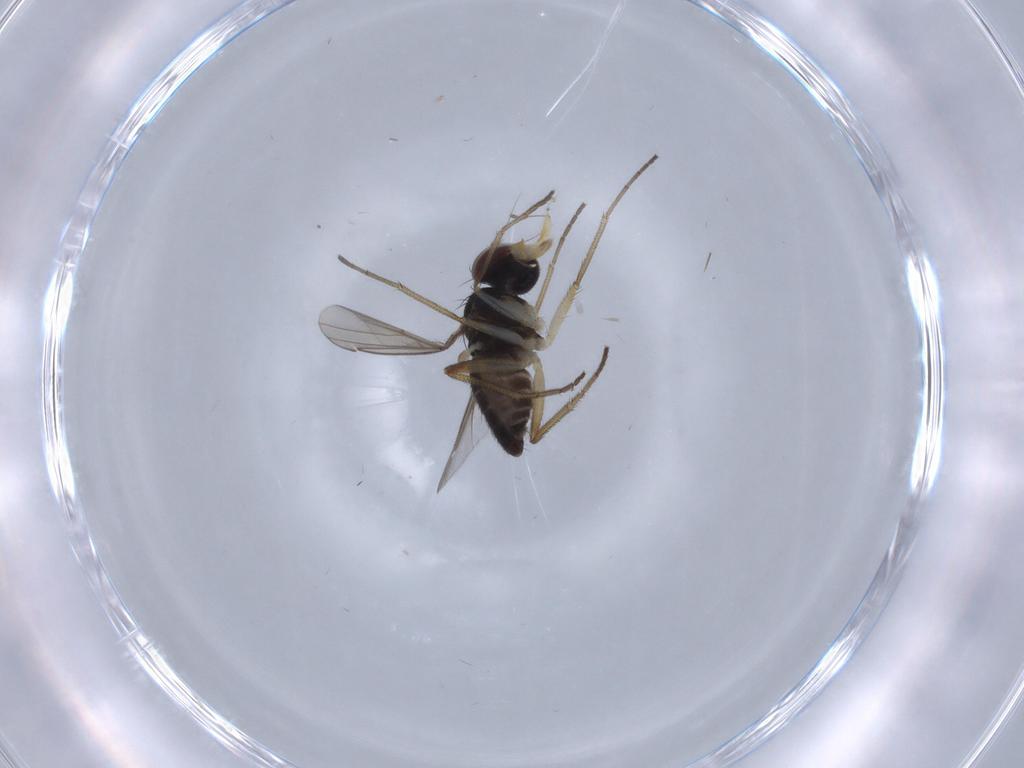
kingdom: Animalia
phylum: Arthropoda
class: Insecta
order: Diptera
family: Dolichopodidae
